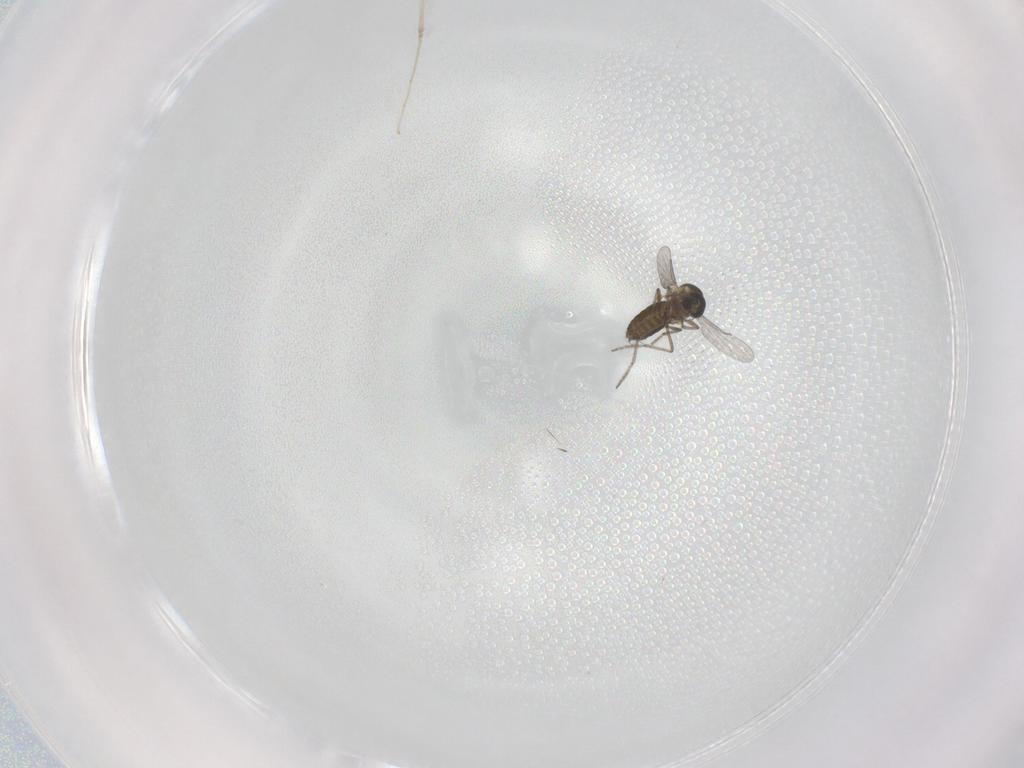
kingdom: Animalia
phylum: Arthropoda
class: Insecta
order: Diptera
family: Ceratopogonidae
